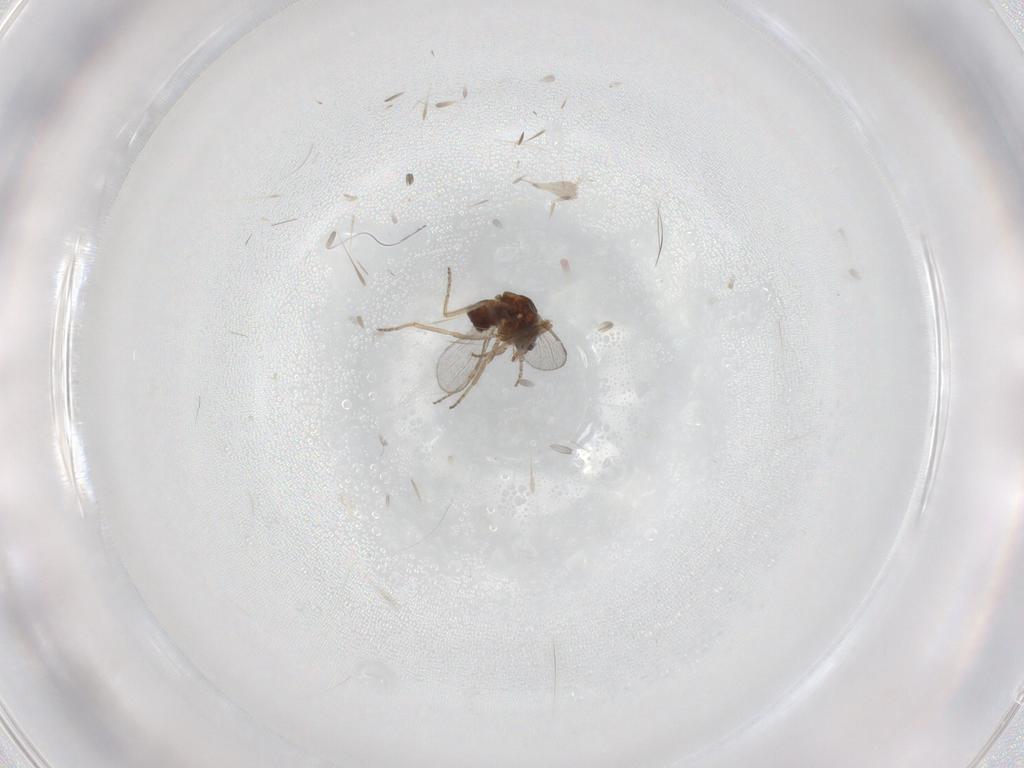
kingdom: Animalia
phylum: Arthropoda
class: Insecta
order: Diptera
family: Ceratopogonidae
